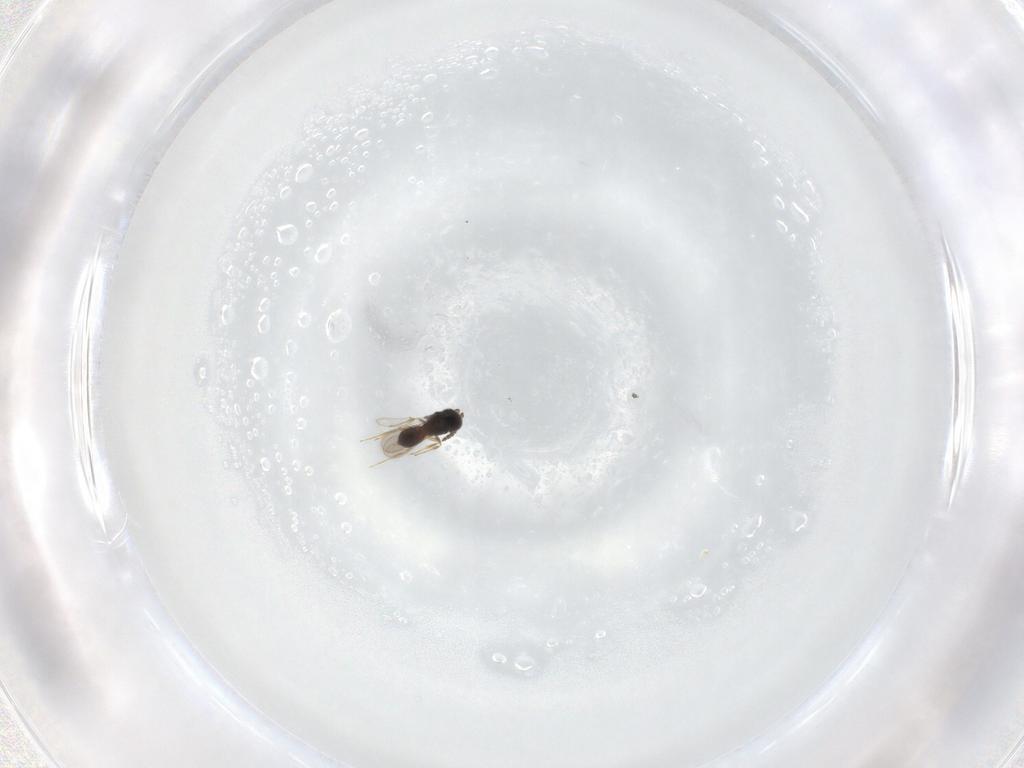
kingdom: Animalia
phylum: Arthropoda
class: Insecta
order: Hymenoptera
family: Scelionidae
